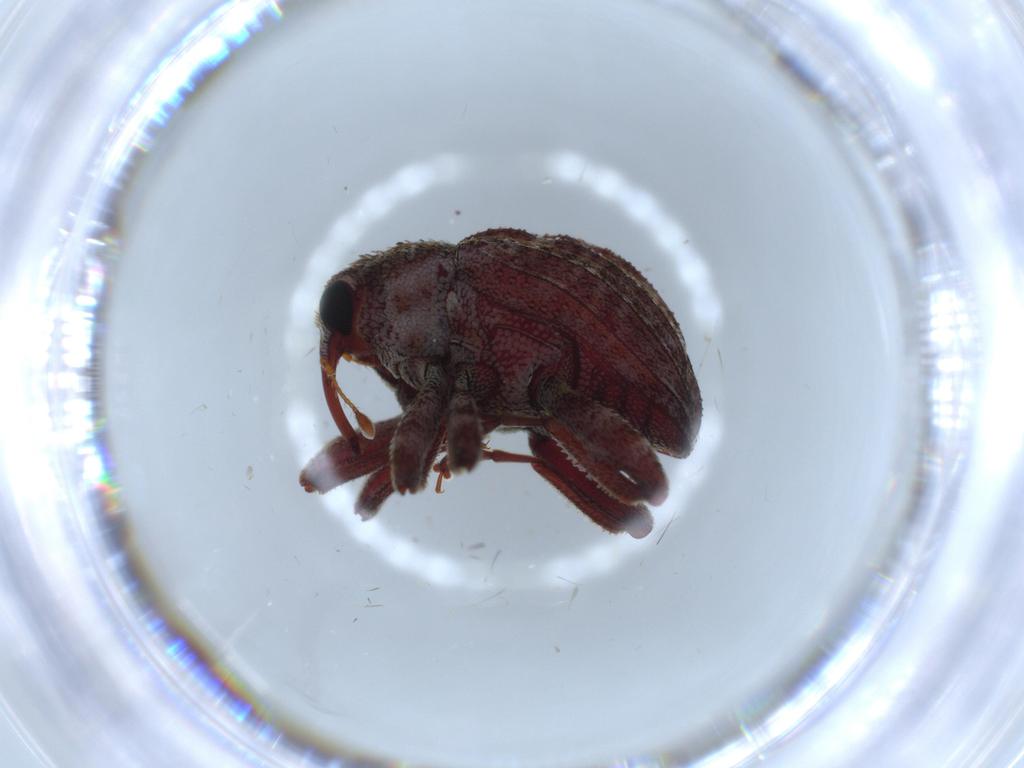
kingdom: Animalia
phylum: Arthropoda
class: Insecta
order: Coleoptera
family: Curculionidae
